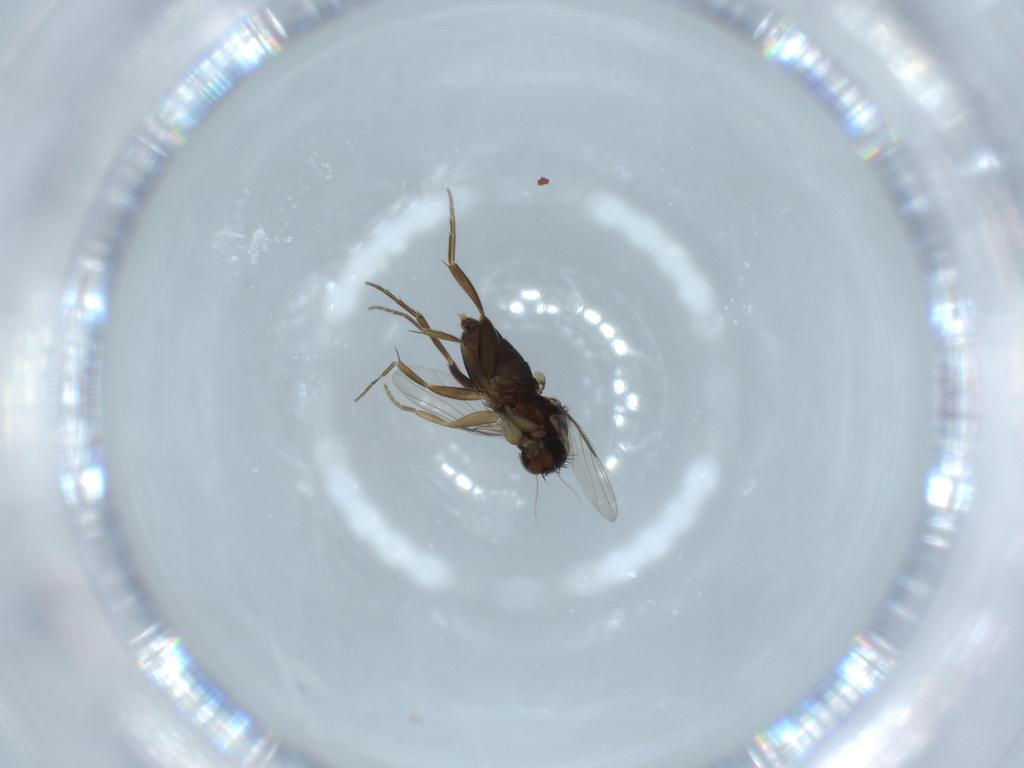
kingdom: Animalia
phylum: Arthropoda
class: Insecta
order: Diptera
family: Phoridae
